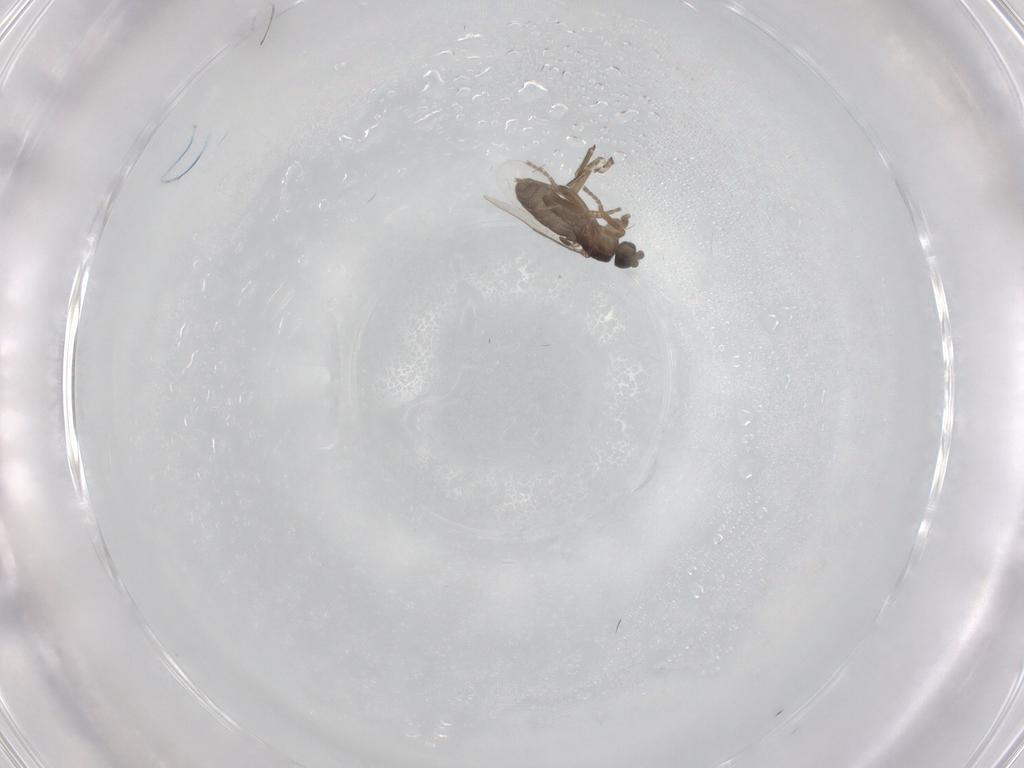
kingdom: Animalia
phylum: Arthropoda
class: Insecta
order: Diptera
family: Phoridae
